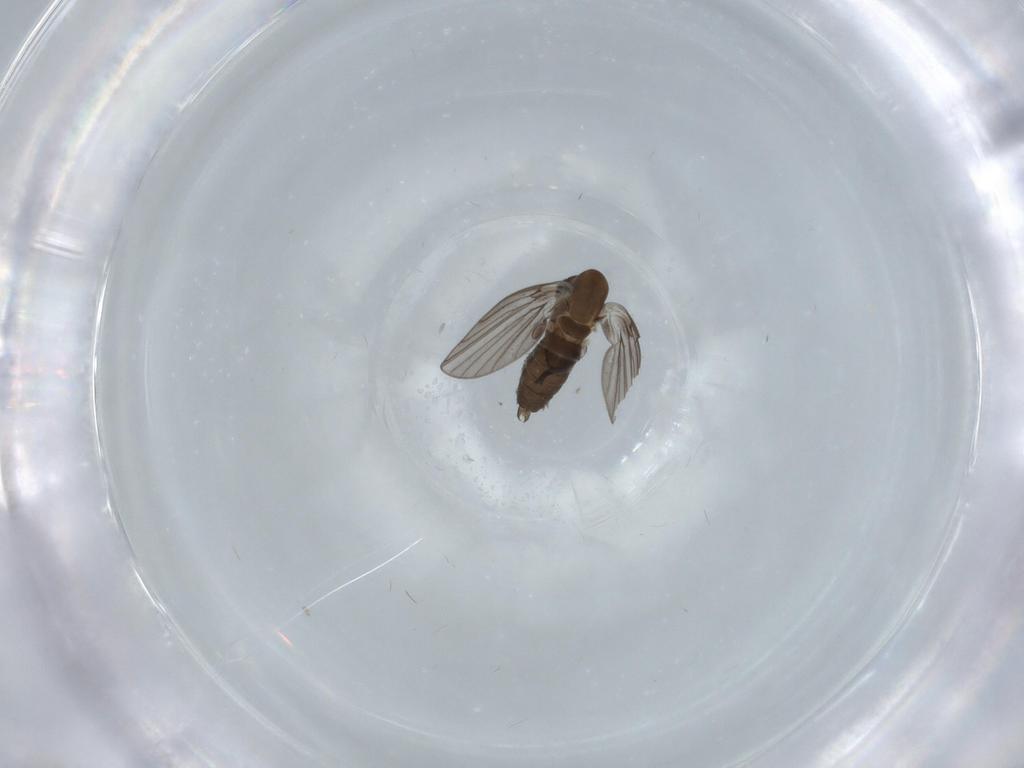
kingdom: Animalia
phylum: Arthropoda
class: Insecta
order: Diptera
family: Psychodidae
